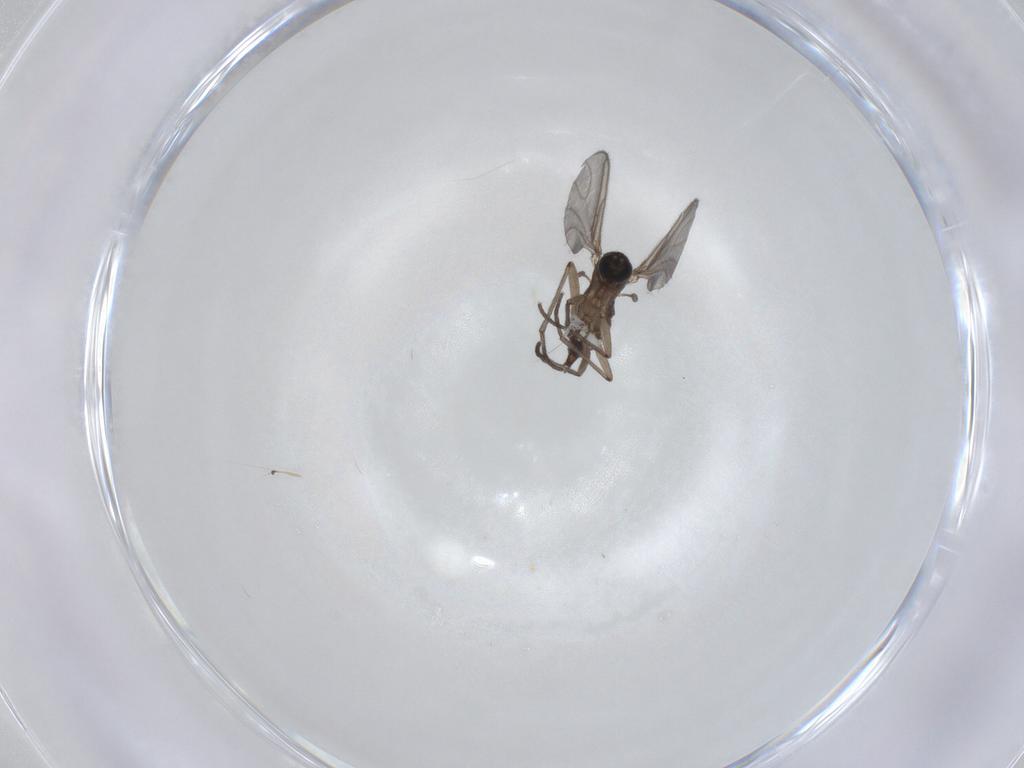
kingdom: Animalia
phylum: Arthropoda
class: Insecta
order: Diptera
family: Sciaridae
